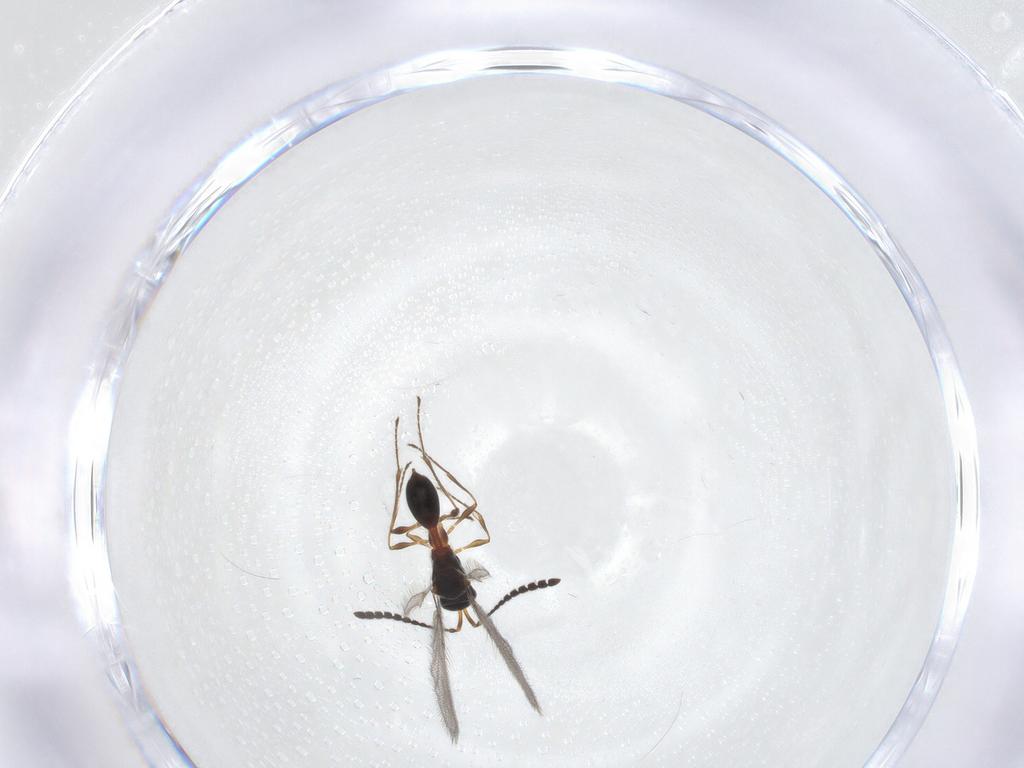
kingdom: Animalia
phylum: Arthropoda
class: Insecta
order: Hymenoptera
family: Diapriidae
